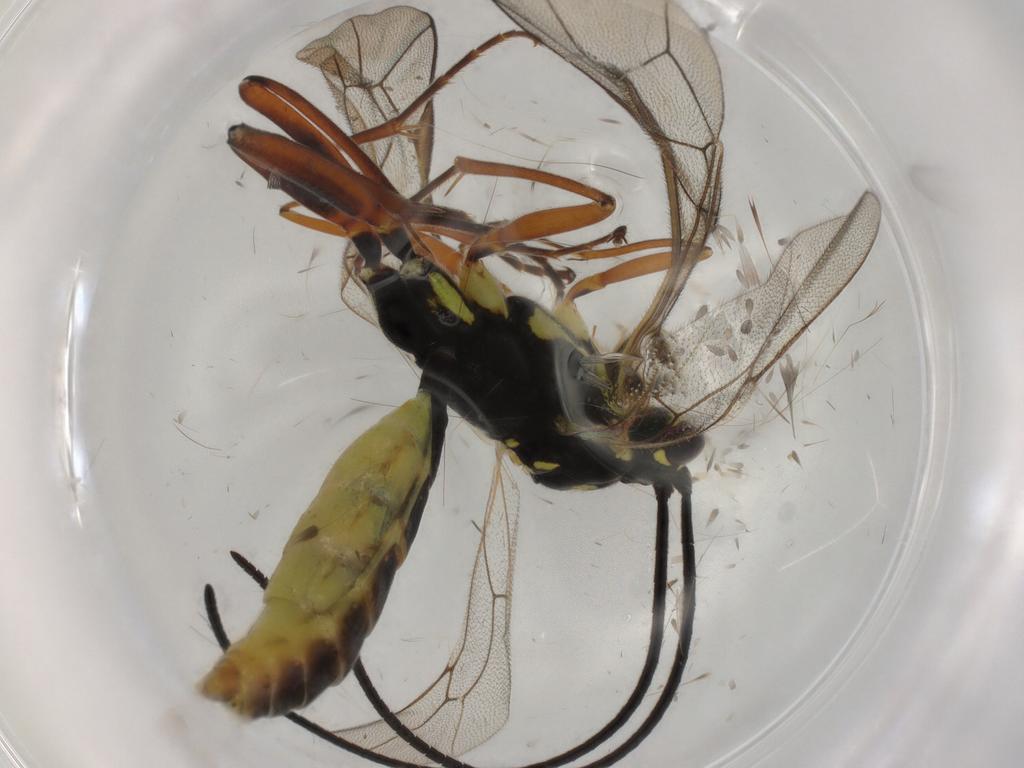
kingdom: Animalia
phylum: Arthropoda
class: Insecta
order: Hymenoptera
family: Ichneumonidae
